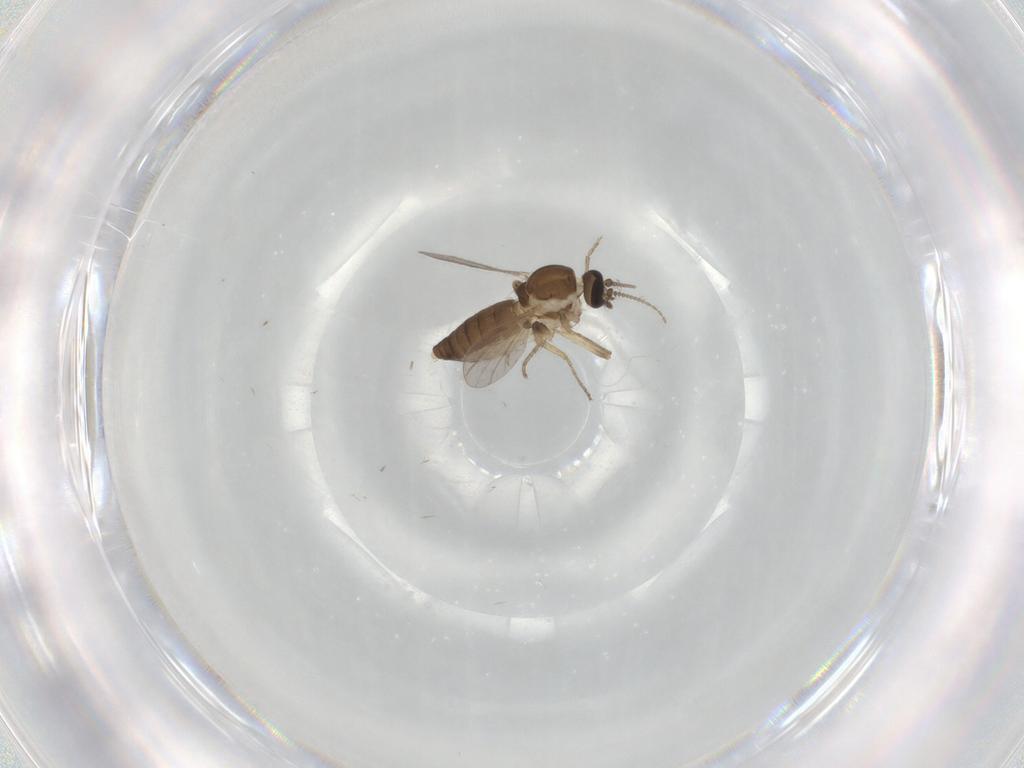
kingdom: Animalia
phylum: Arthropoda
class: Insecta
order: Diptera
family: Ceratopogonidae
